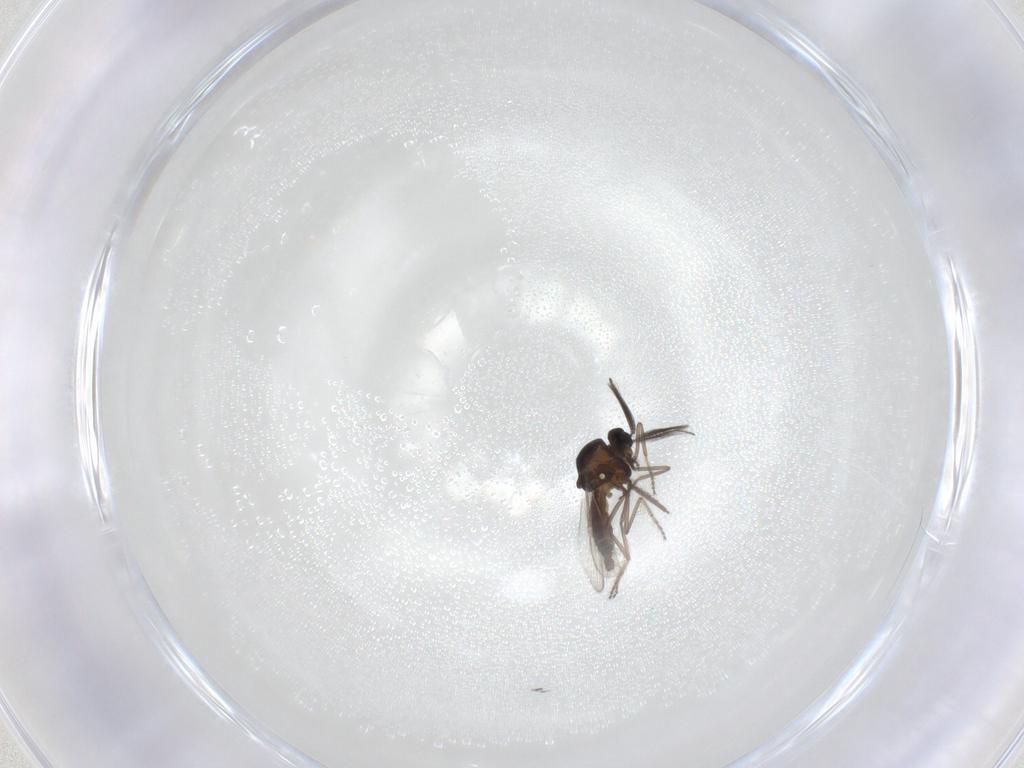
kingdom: Animalia
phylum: Arthropoda
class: Insecta
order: Diptera
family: Ceratopogonidae
